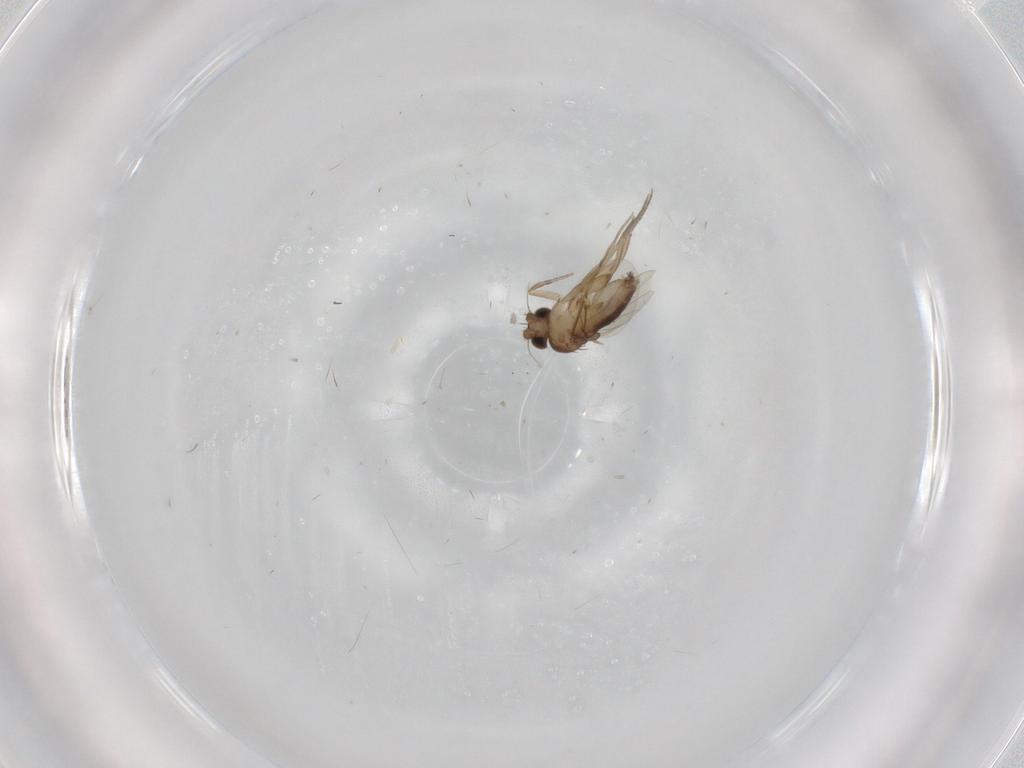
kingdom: Animalia
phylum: Arthropoda
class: Insecta
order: Diptera
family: Phoridae
